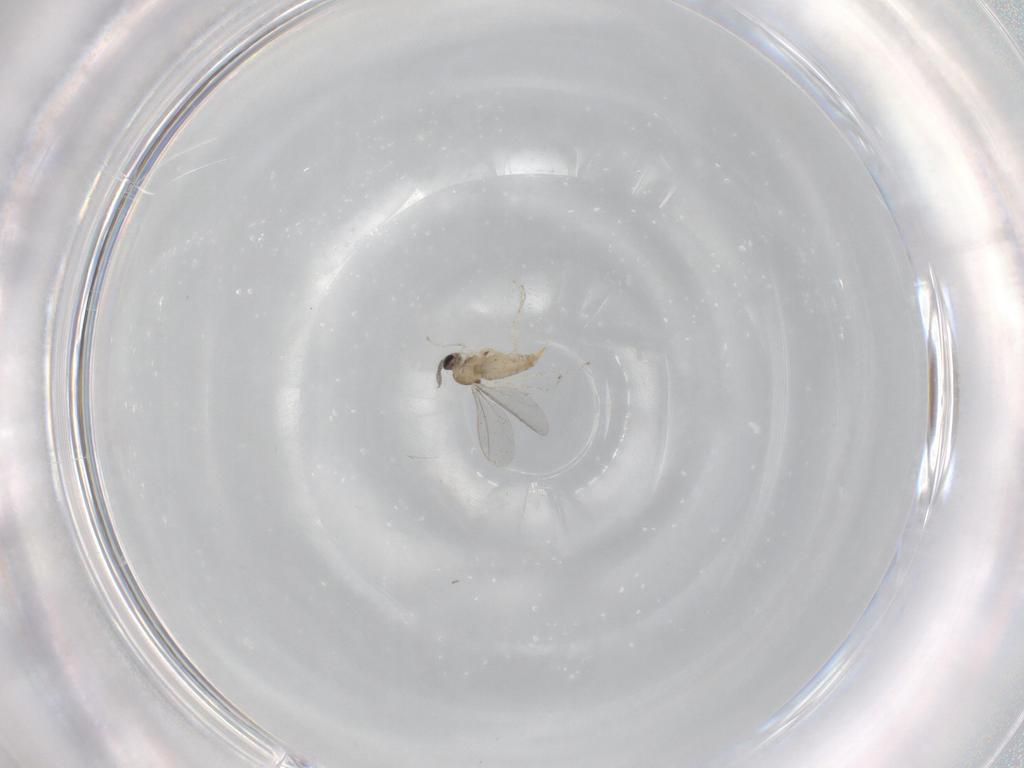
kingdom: Animalia
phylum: Arthropoda
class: Insecta
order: Diptera
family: Cecidomyiidae
